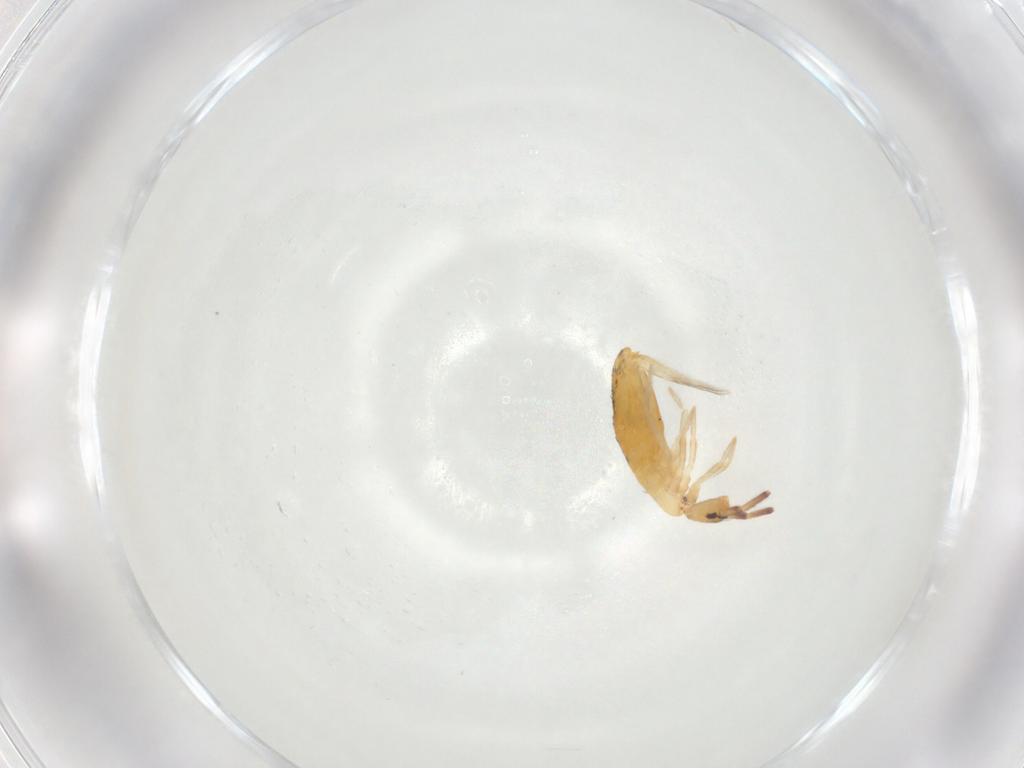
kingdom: Animalia
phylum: Arthropoda
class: Collembola
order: Entomobryomorpha
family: Entomobryidae
